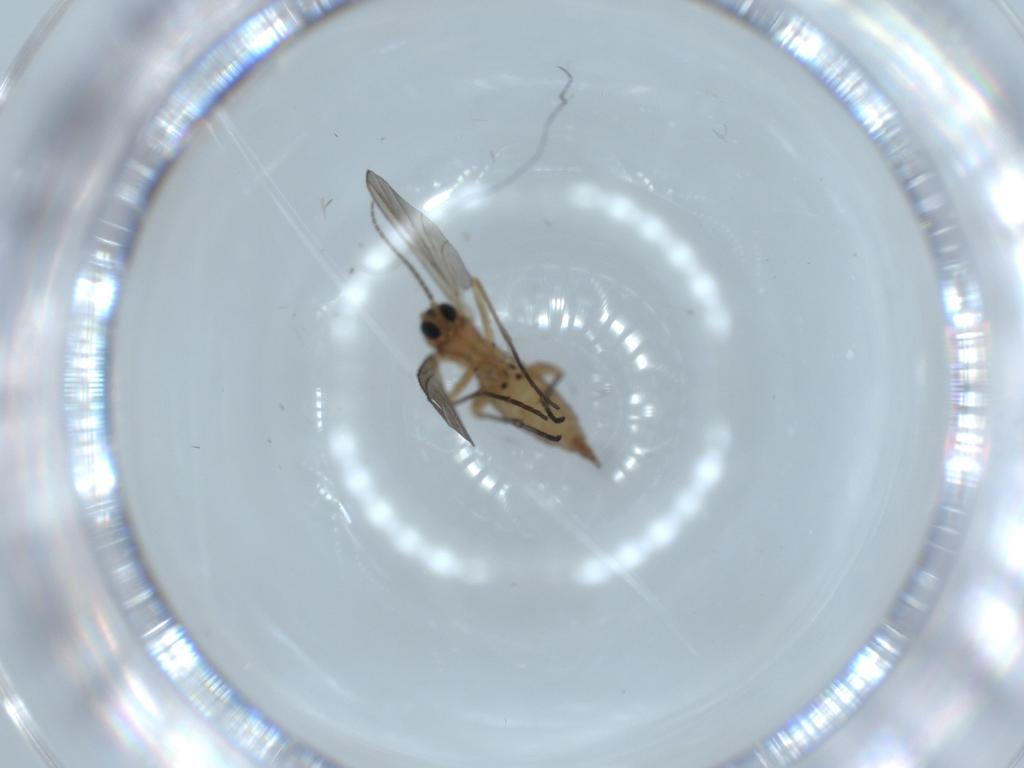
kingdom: Animalia
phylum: Arthropoda
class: Insecta
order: Diptera
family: Sciaridae
